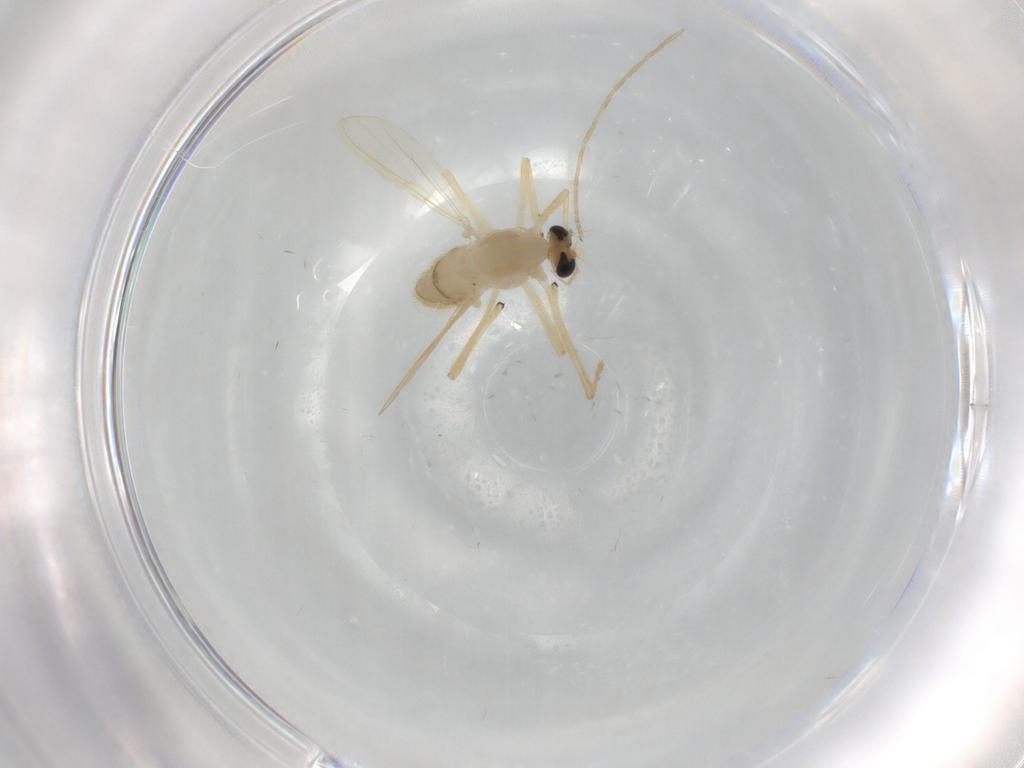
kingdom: Animalia
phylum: Arthropoda
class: Insecta
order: Diptera
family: Chironomidae
